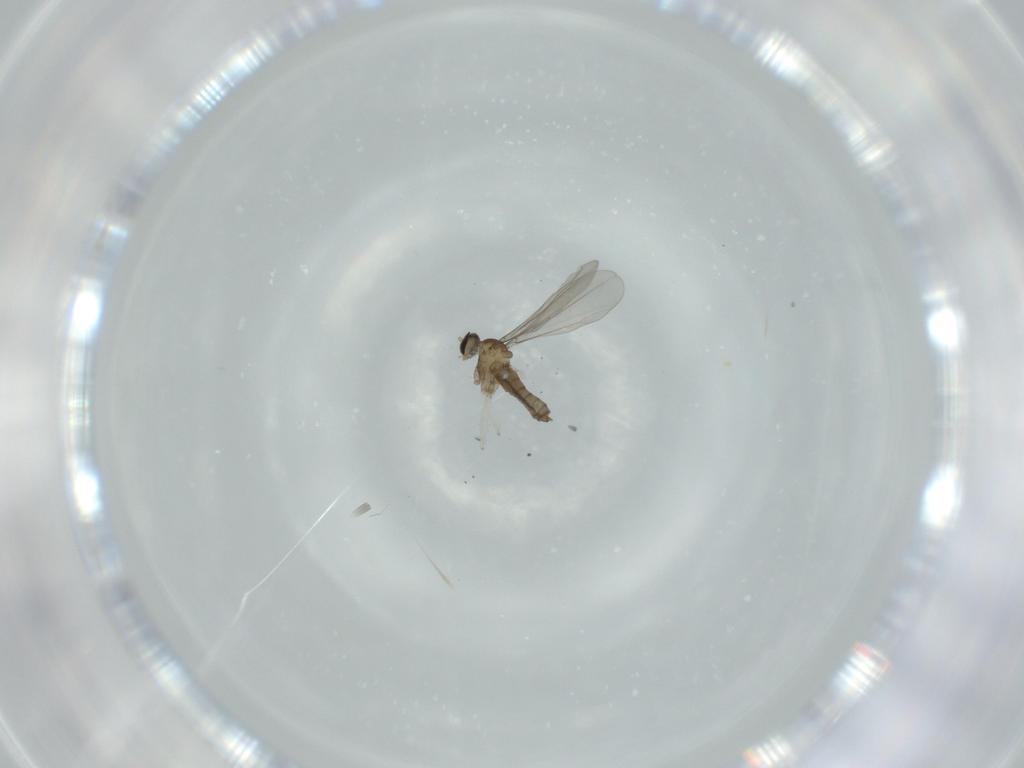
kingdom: Animalia
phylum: Arthropoda
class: Insecta
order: Diptera
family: Cecidomyiidae
